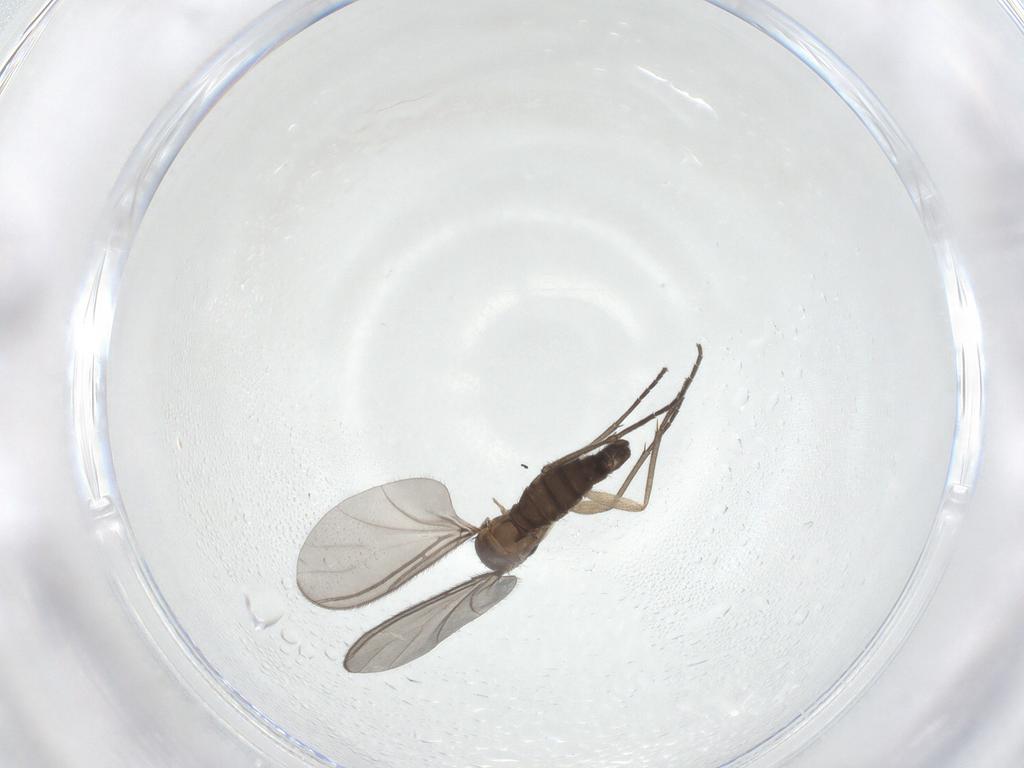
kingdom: Animalia
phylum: Arthropoda
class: Insecta
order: Diptera
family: Sciaridae
